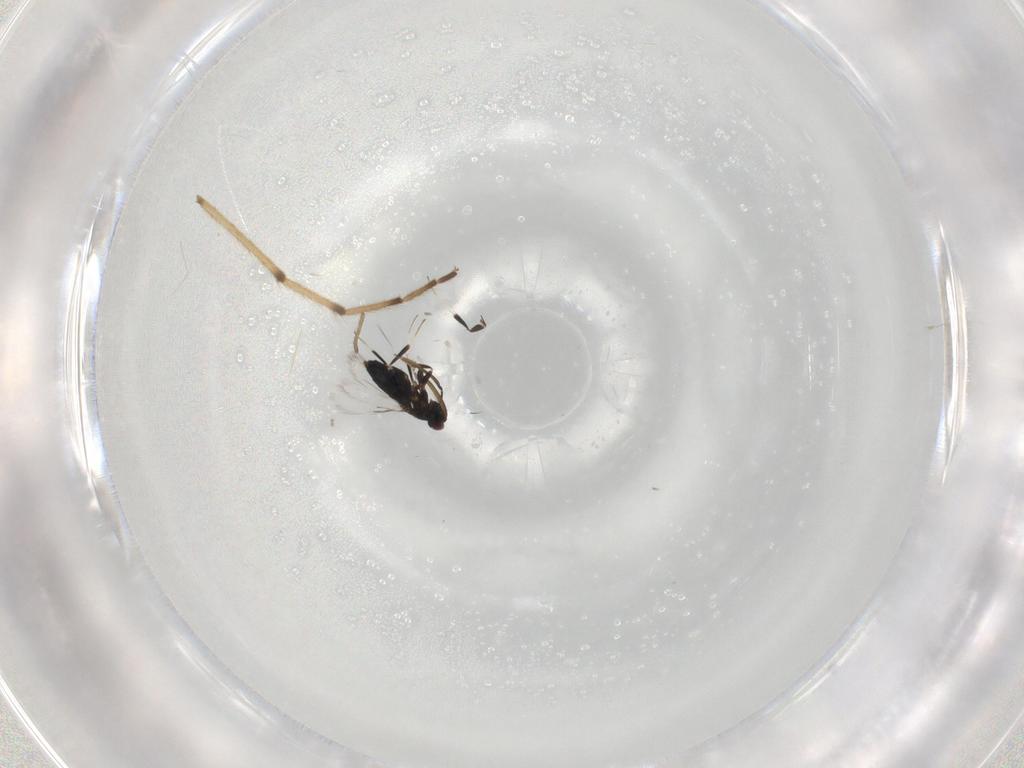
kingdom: Animalia
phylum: Arthropoda
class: Insecta
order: Hymenoptera
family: Signiphoridae
